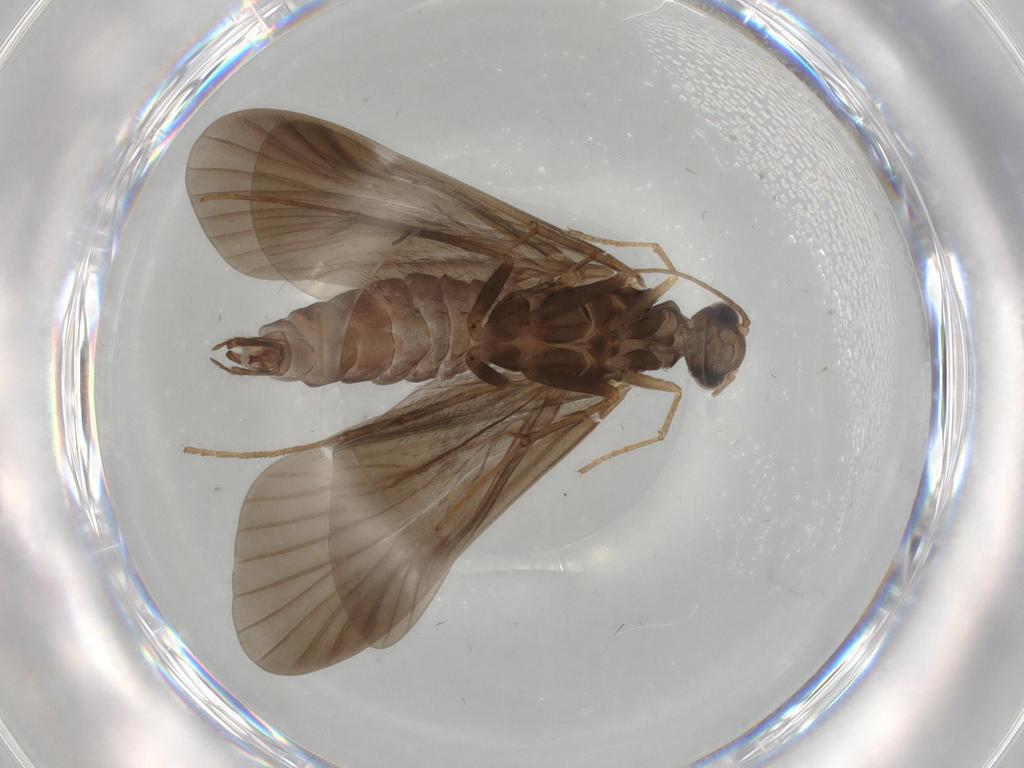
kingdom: Animalia
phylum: Arthropoda
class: Insecta
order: Trichoptera
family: Hydropsychidae
